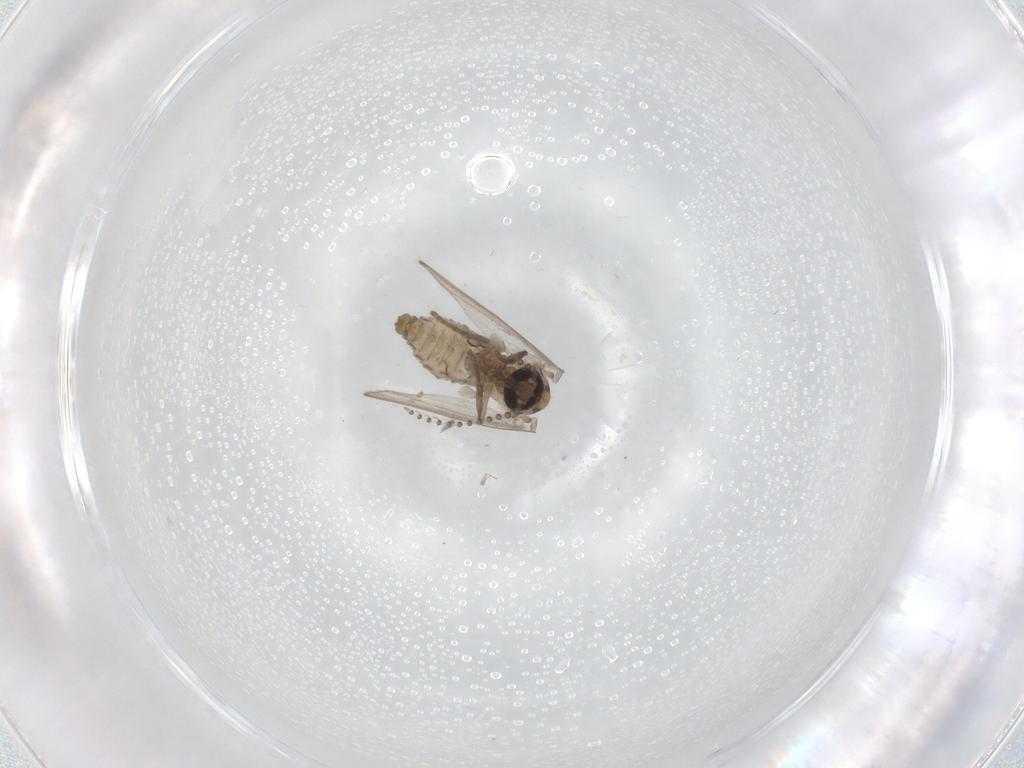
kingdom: Animalia
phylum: Arthropoda
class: Insecta
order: Diptera
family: Psychodidae
